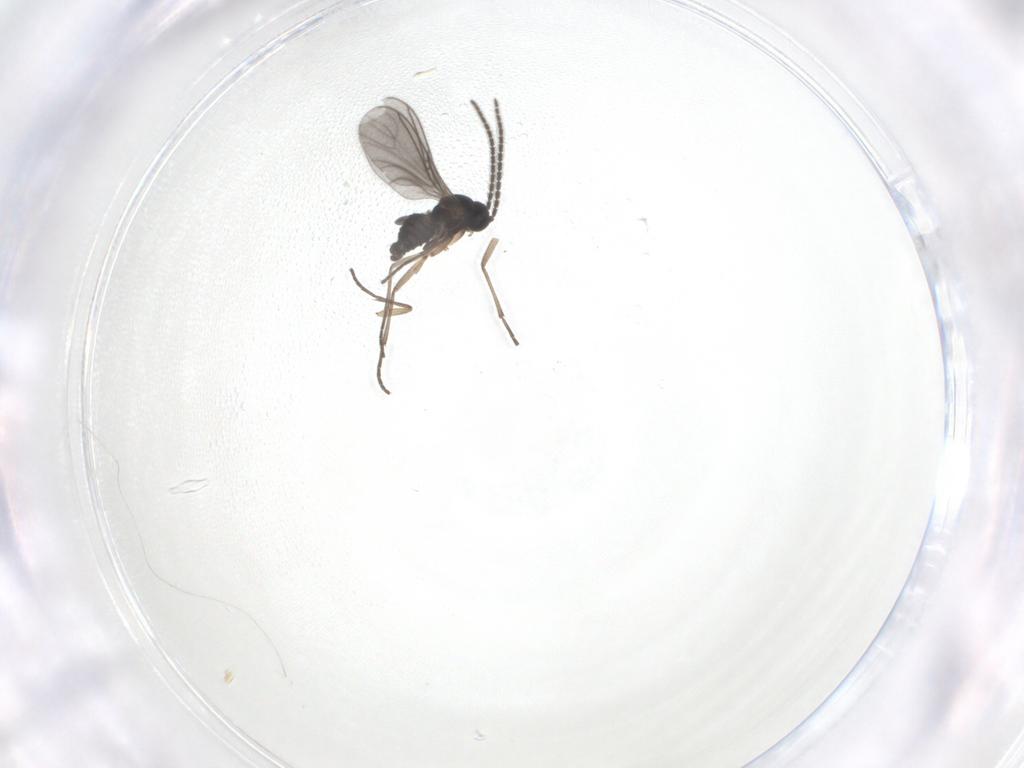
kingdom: Animalia
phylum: Arthropoda
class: Insecta
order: Diptera
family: Sciaridae
